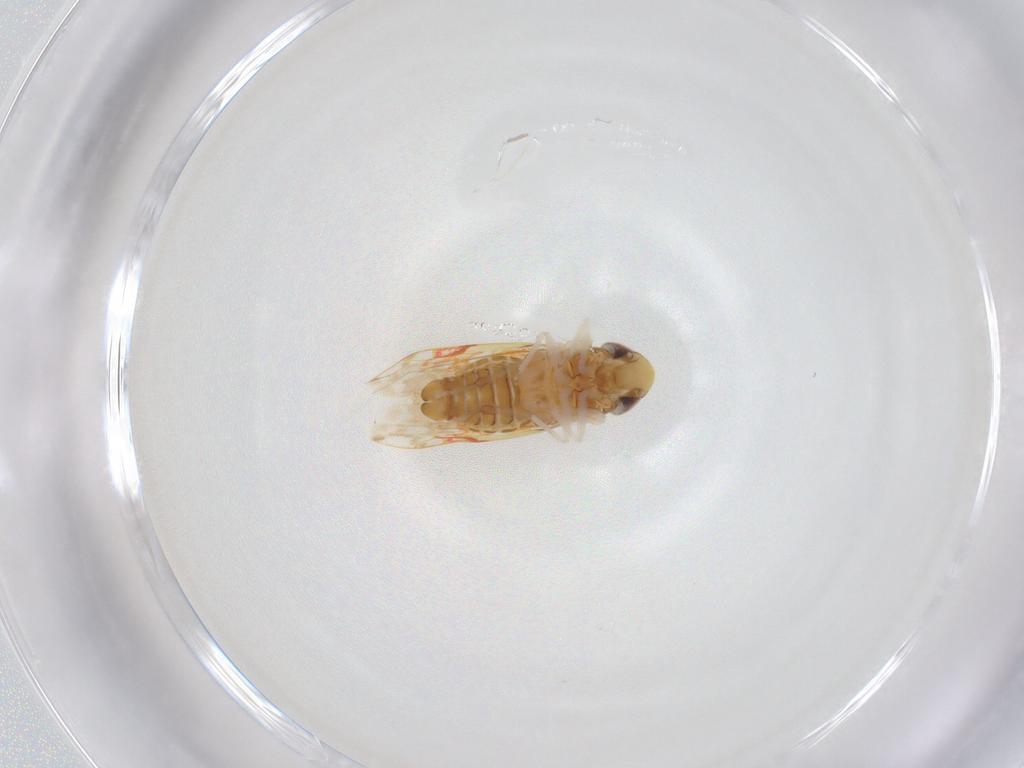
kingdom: Animalia
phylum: Arthropoda
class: Insecta
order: Hemiptera
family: Cicadellidae
